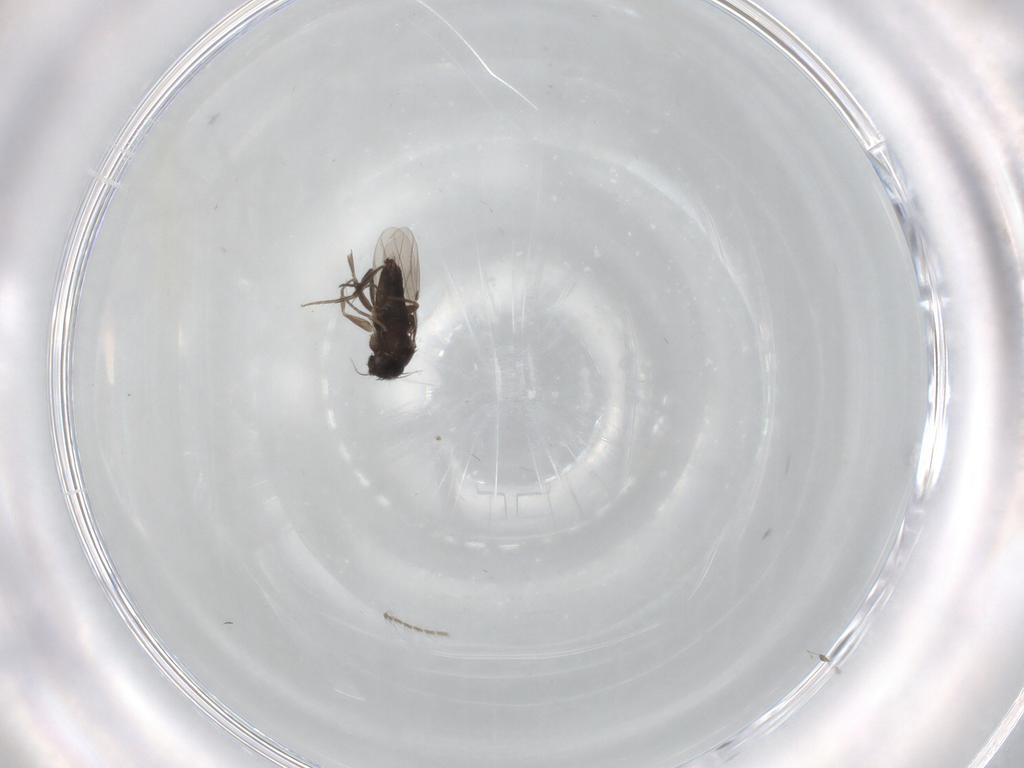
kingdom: Animalia
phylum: Arthropoda
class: Insecta
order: Diptera
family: Phoridae
